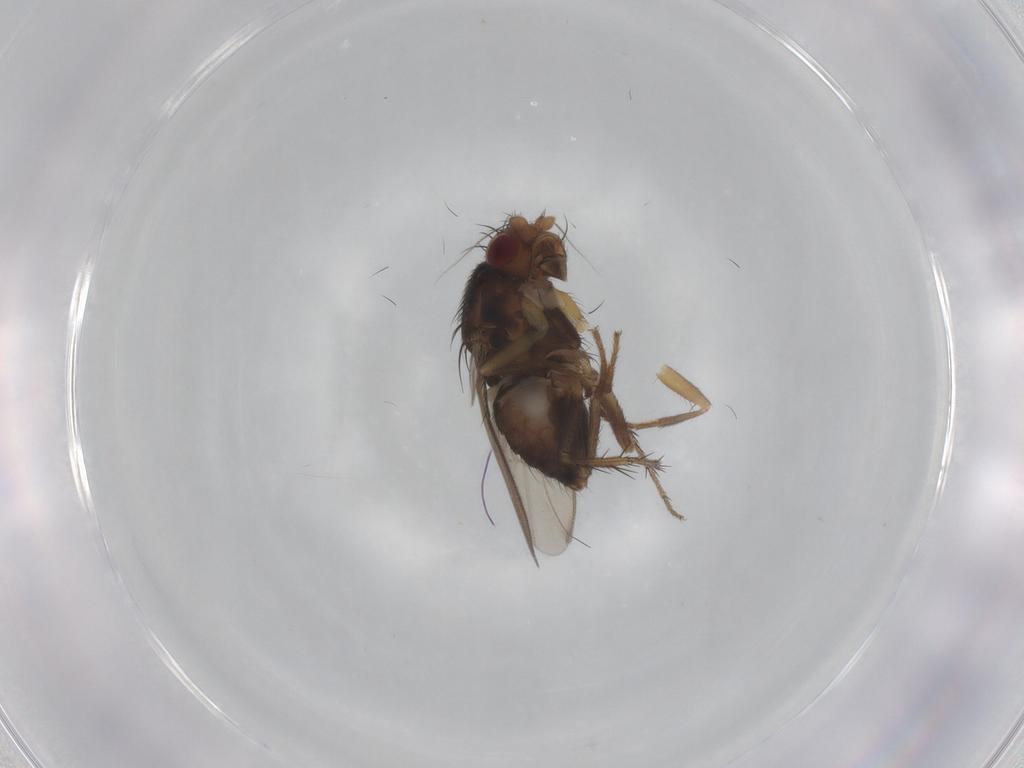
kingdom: Animalia
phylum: Arthropoda
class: Insecta
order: Diptera
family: Sphaeroceridae
